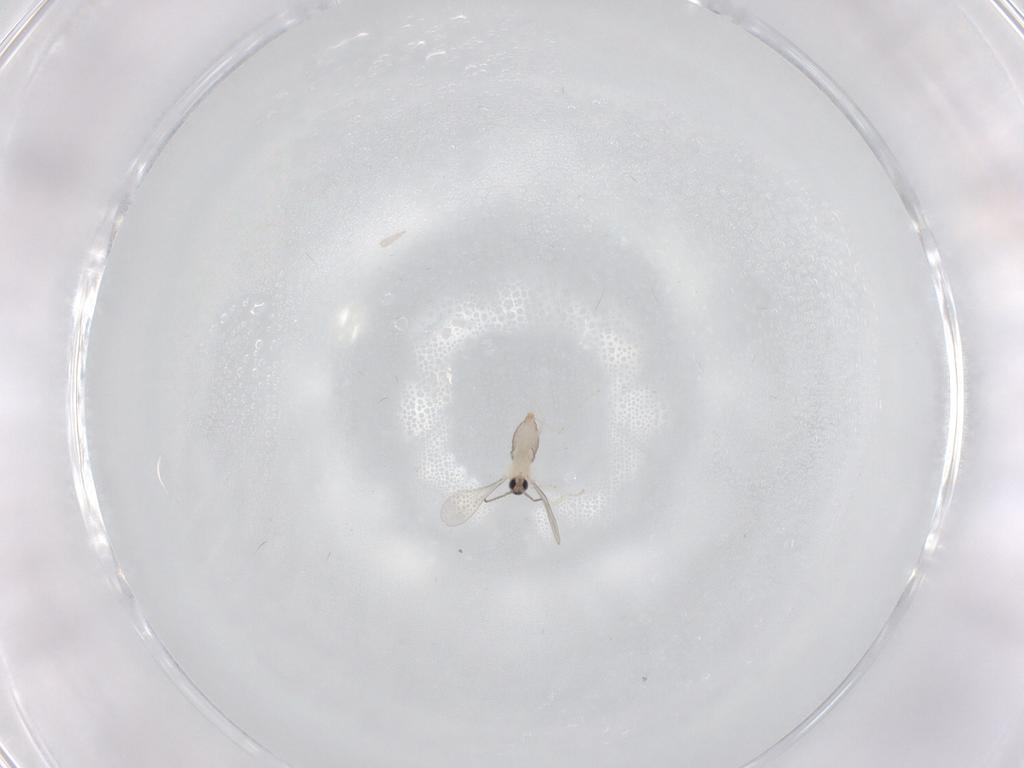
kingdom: Animalia
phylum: Arthropoda
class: Insecta
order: Diptera
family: Cecidomyiidae
